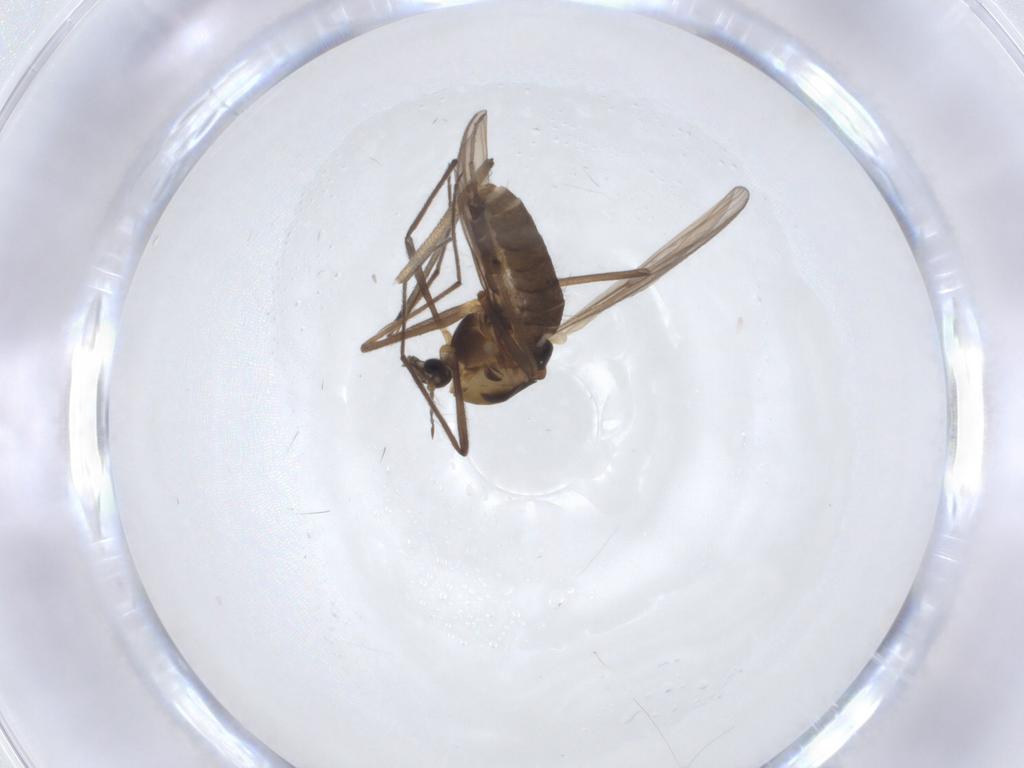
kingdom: Animalia
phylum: Arthropoda
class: Insecta
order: Diptera
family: Chironomidae
